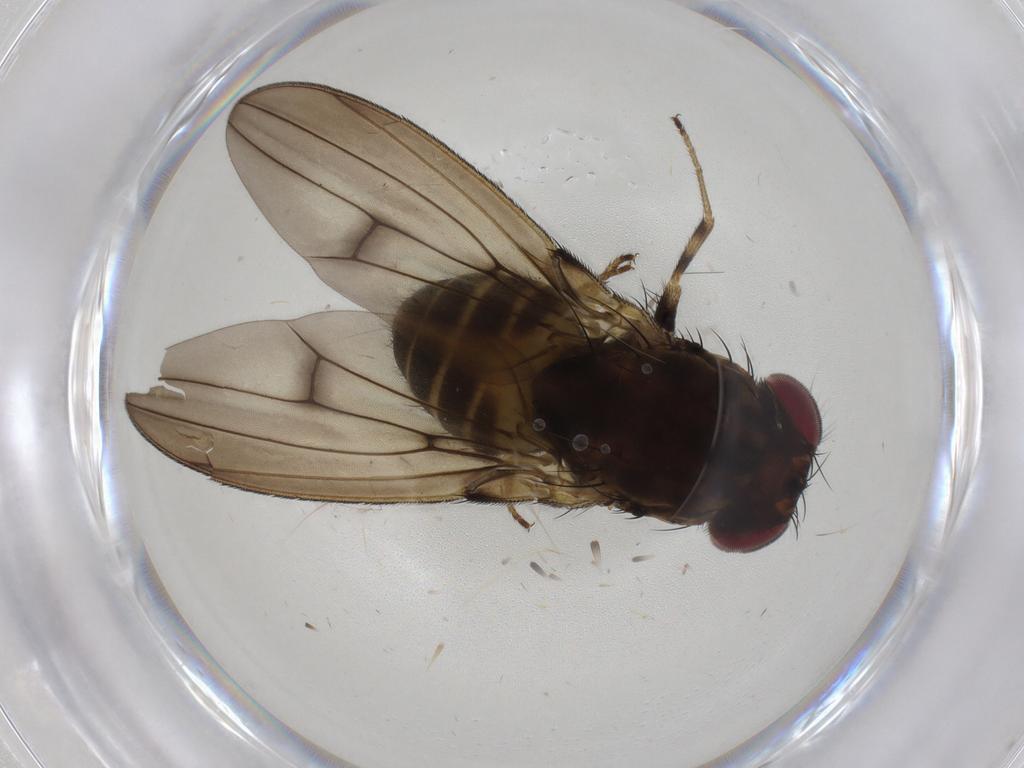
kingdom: Animalia
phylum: Arthropoda
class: Insecta
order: Diptera
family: Drosophilidae
